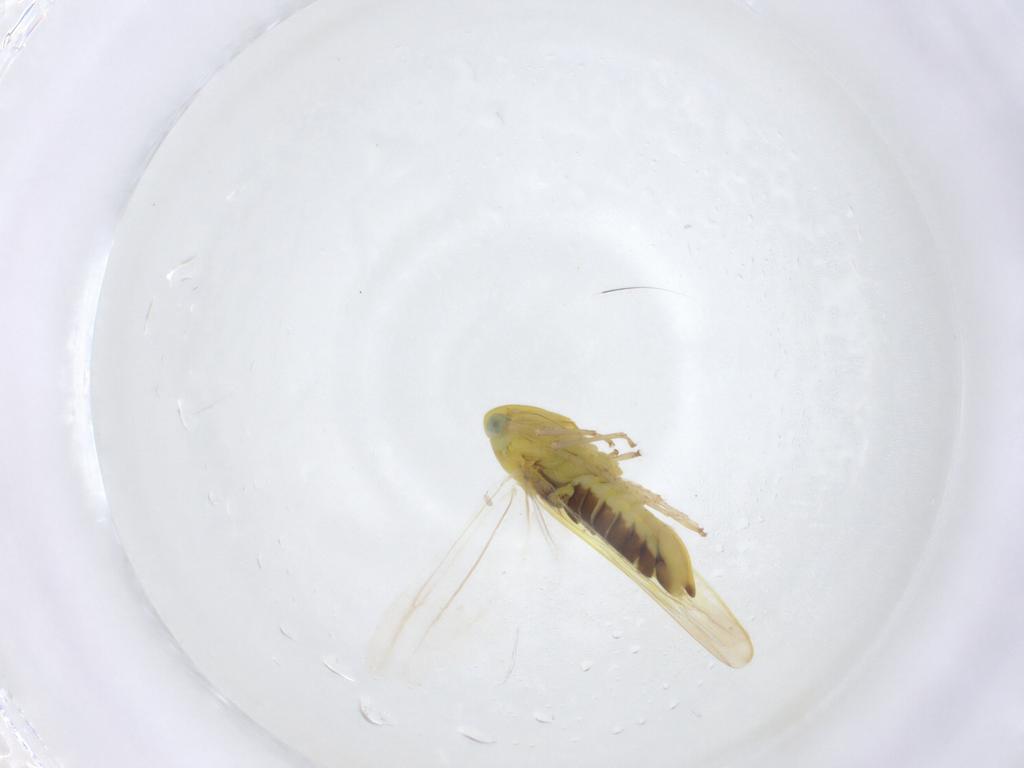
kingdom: Animalia
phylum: Arthropoda
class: Insecta
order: Hemiptera
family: Cicadellidae
